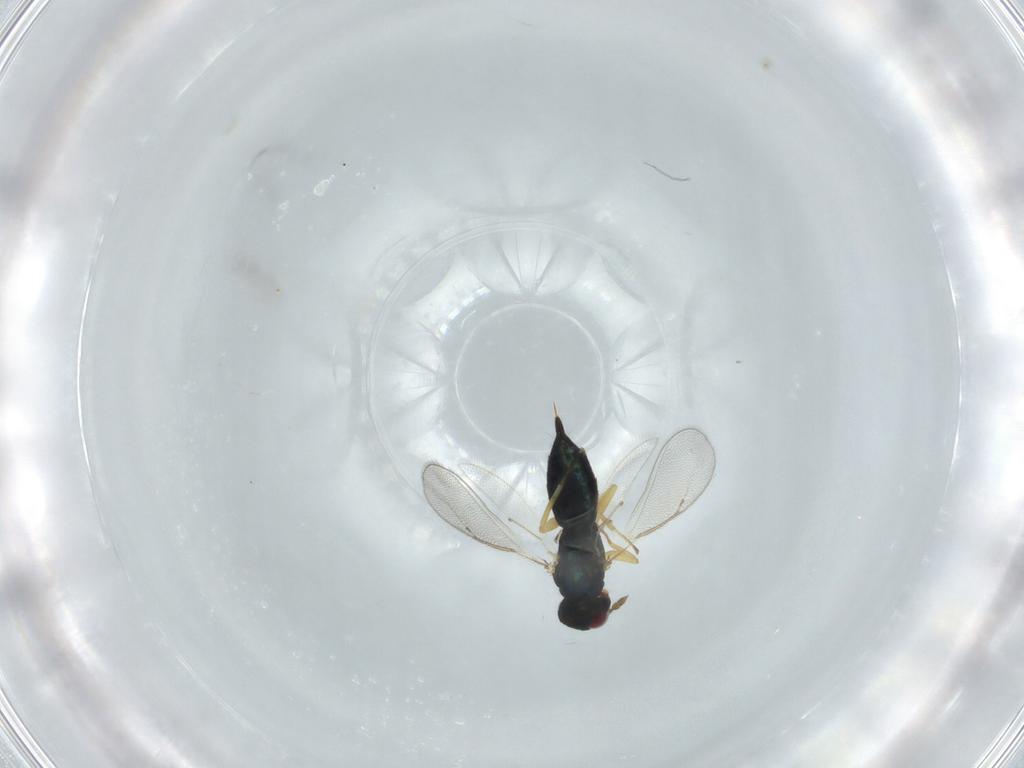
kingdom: Animalia
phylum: Arthropoda
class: Insecta
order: Hymenoptera
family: Eulophidae
